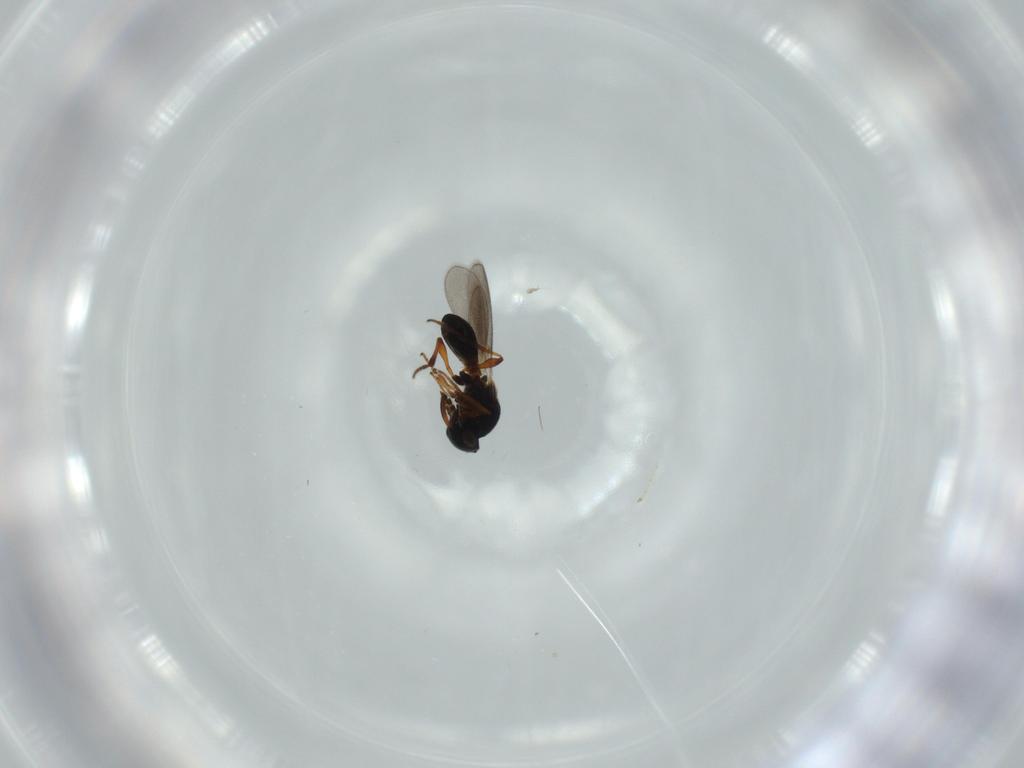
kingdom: Animalia
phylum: Arthropoda
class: Insecta
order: Hymenoptera
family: Platygastridae
